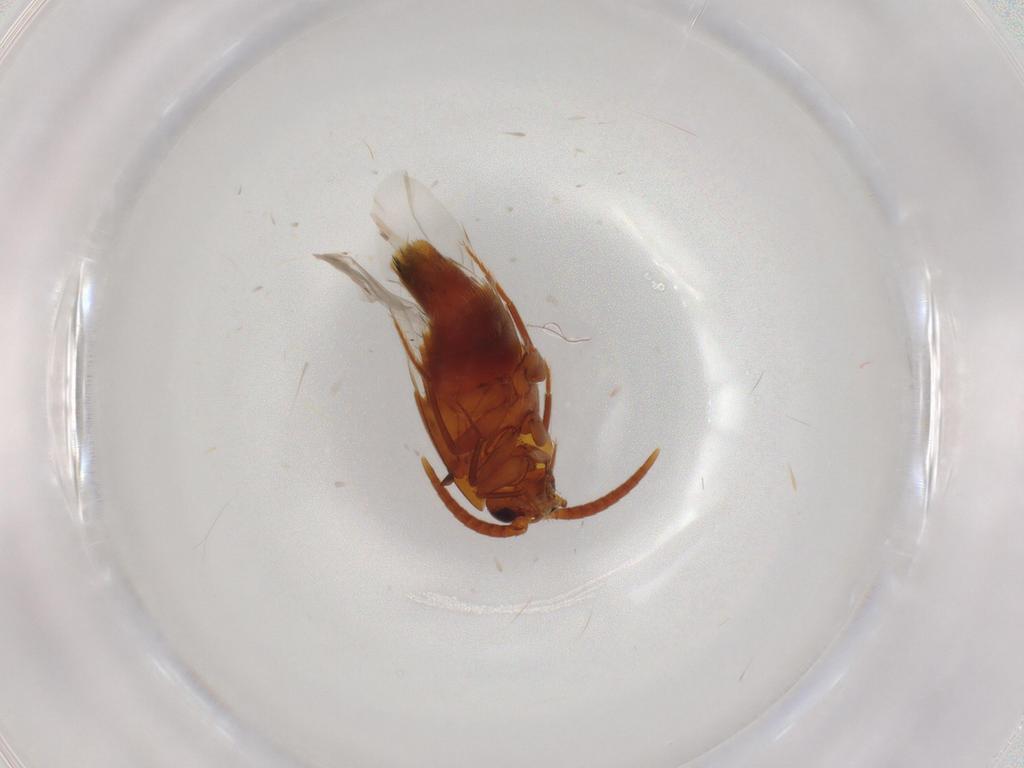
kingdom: Animalia
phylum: Arthropoda
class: Insecta
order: Coleoptera
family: Staphylinidae
